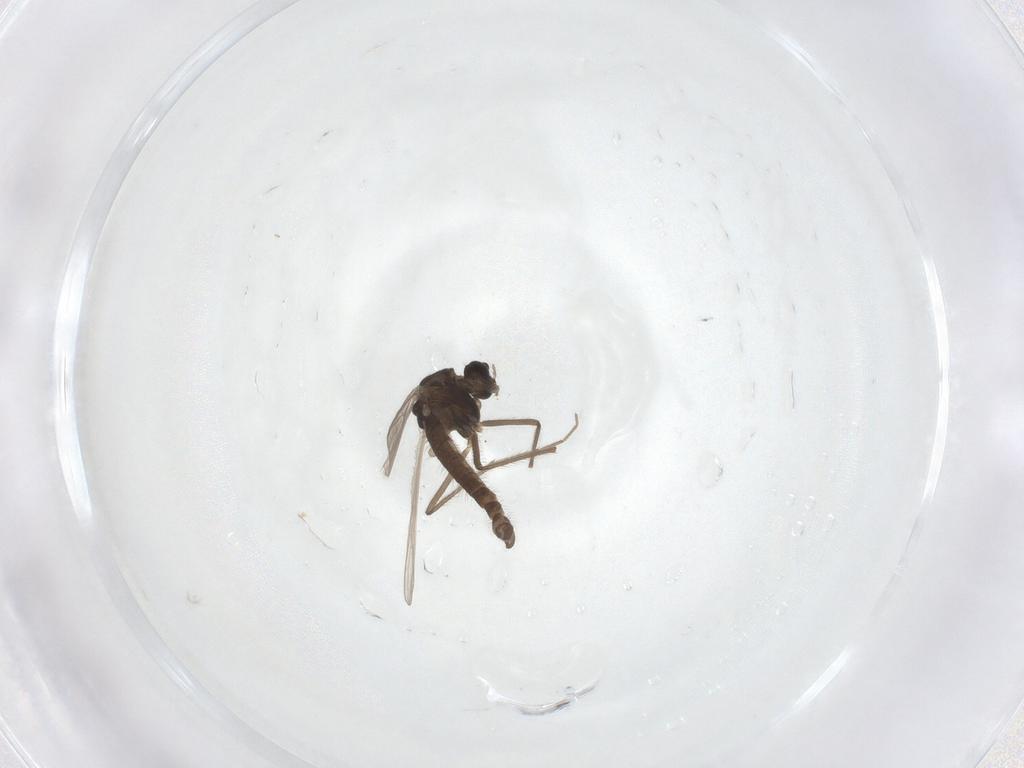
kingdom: Animalia
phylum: Arthropoda
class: Insecta
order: Diptera
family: Chironomidae
